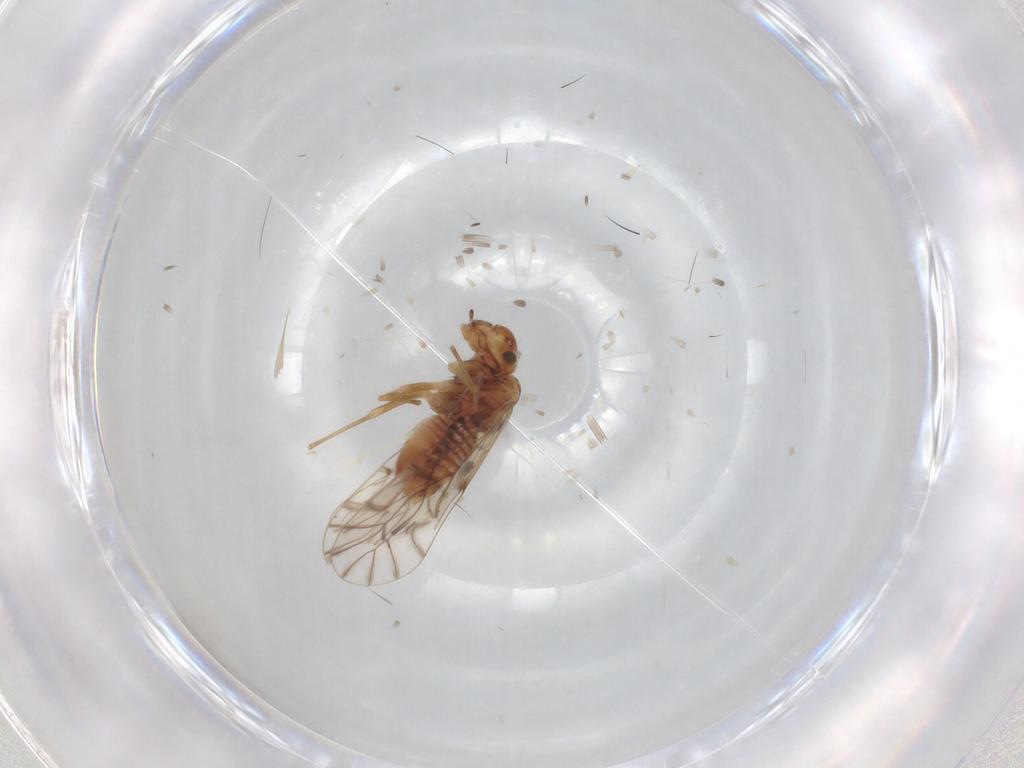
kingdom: Animalia
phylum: Arthropoda
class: Insecta
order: Psocodea
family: Lachesillidae
